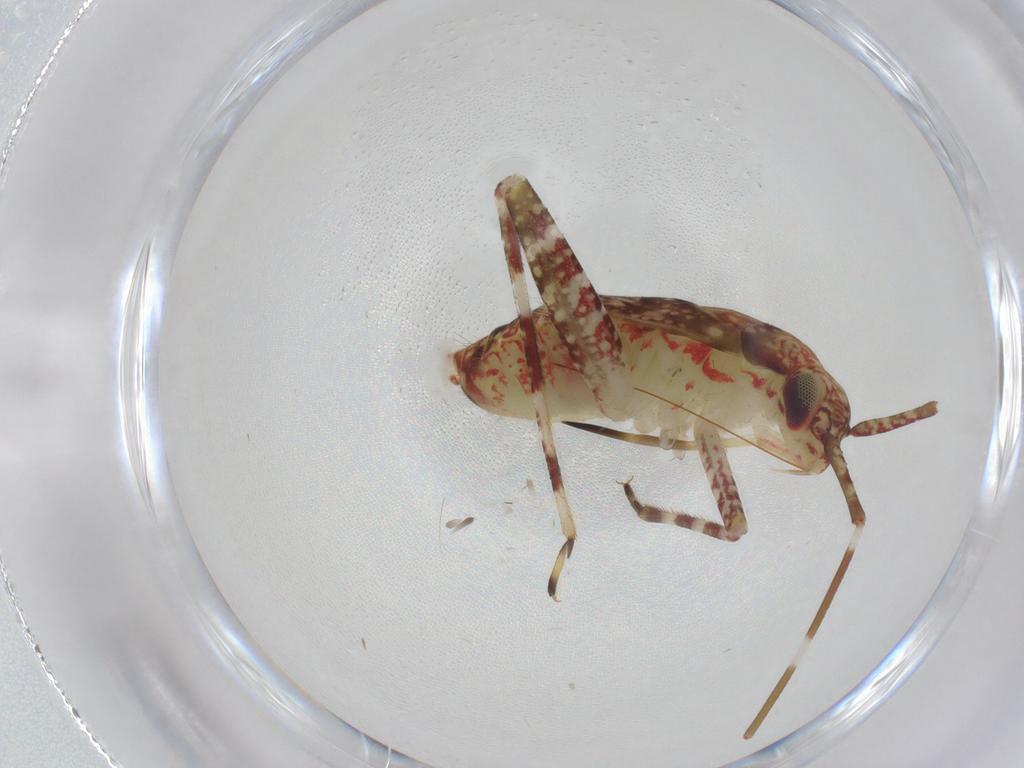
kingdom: Animalia
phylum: Arthropoda
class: Insecta
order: Hemiptera
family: Miridae
